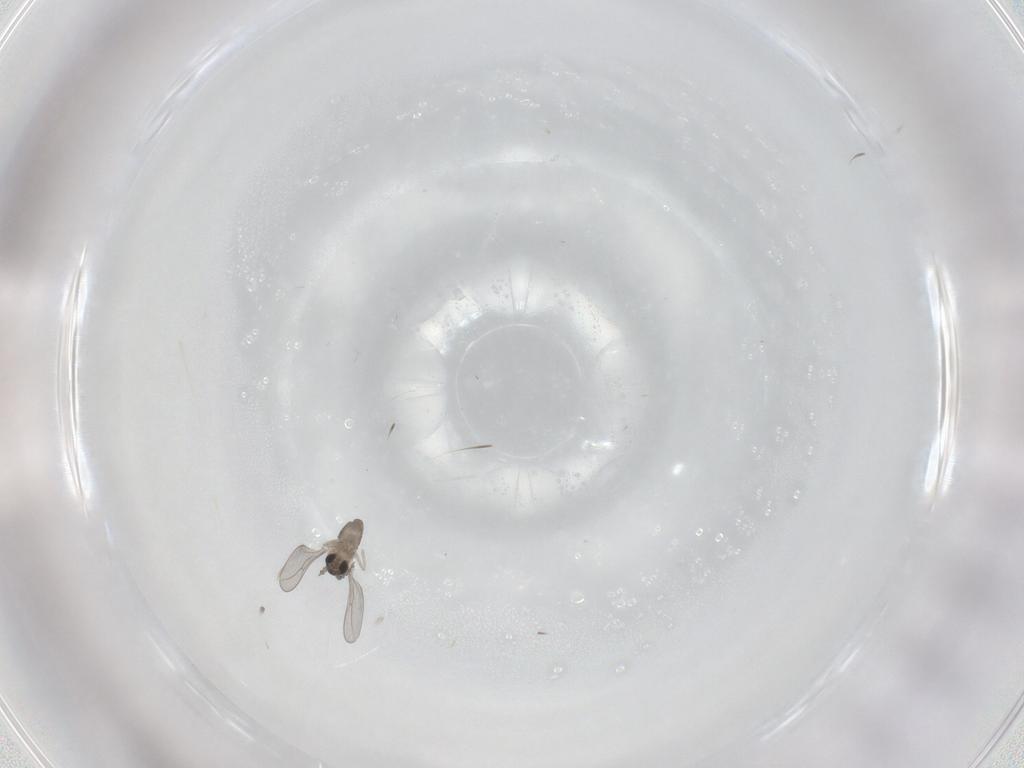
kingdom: Animalia
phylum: Arthropoda
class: Insecta
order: Diptera
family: Cecidomyiidae
